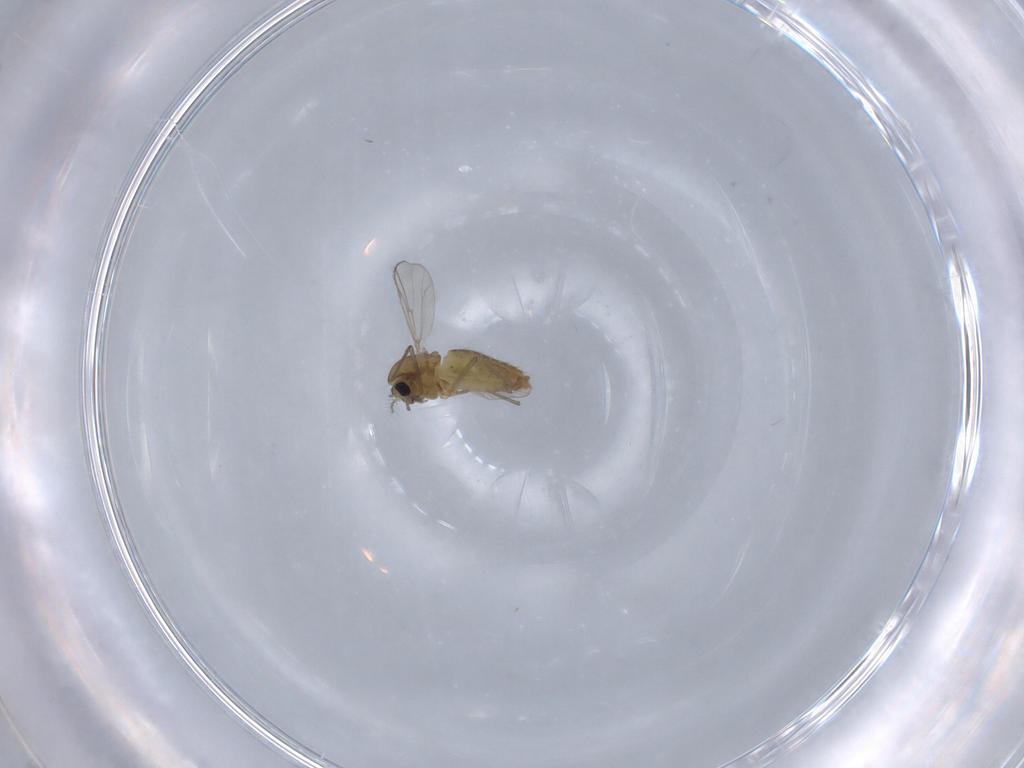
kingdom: Animalia
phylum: Arthropoda
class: Insecta
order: Diptera
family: Chironomidae
